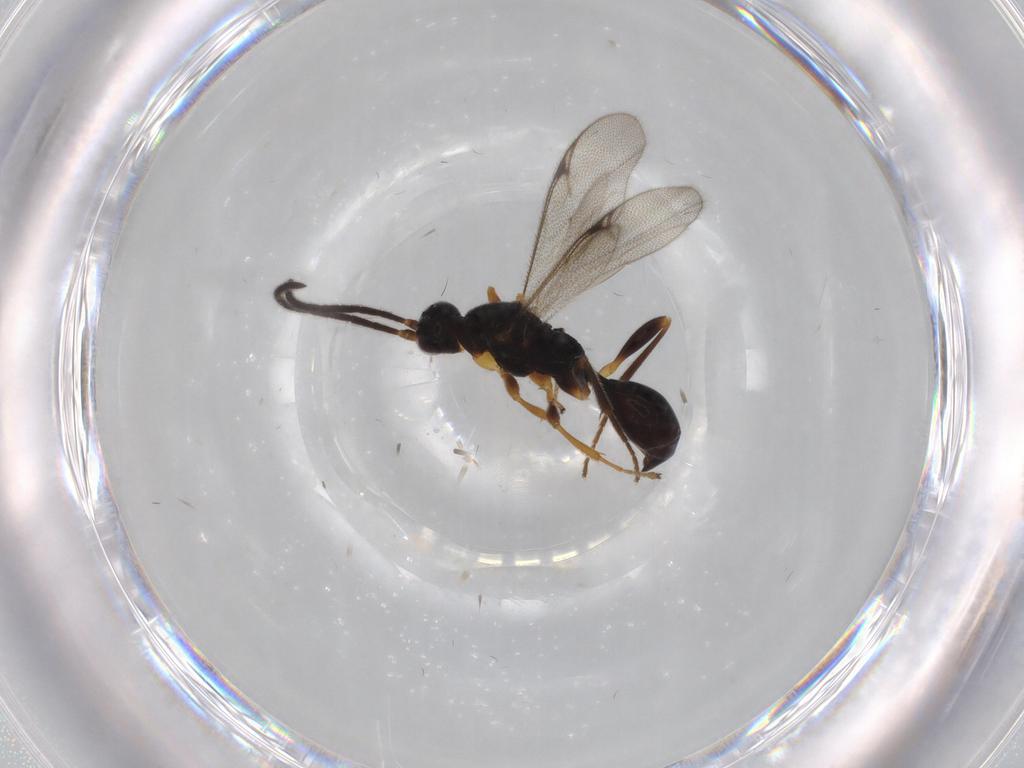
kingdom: Animalia
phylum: Arthropoda
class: Insecta
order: Hymenoptera
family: Proctotrupidae
